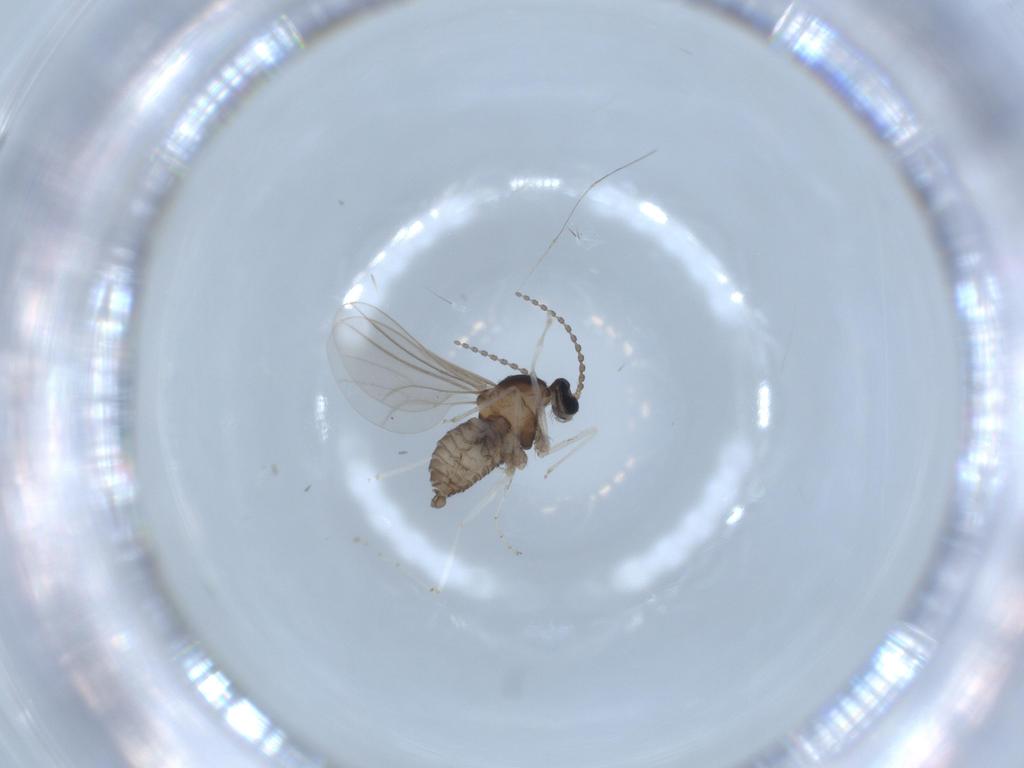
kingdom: Animalia
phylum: Arthropoda
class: Insecta
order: Diptera
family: Cecidomyiidae
